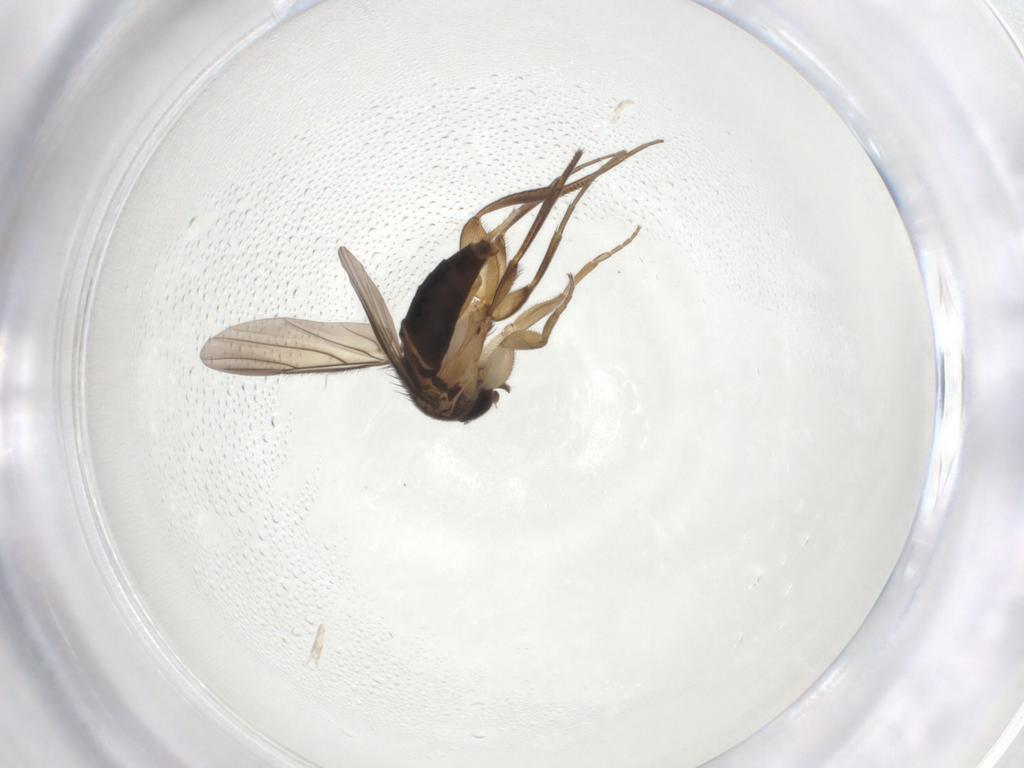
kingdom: Animalia
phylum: Arthropoda
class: Insecta
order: Diptera
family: Phoridae
